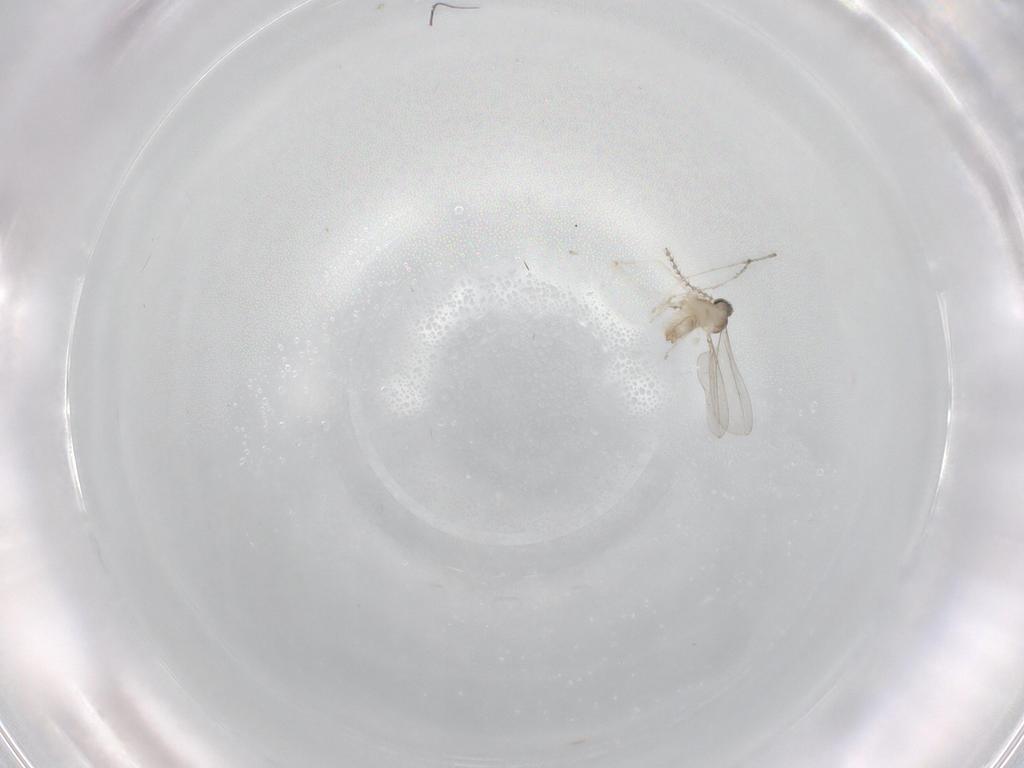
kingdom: Animalia
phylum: Arthropoda
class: Insecta
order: Diptera
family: Sciaridae
